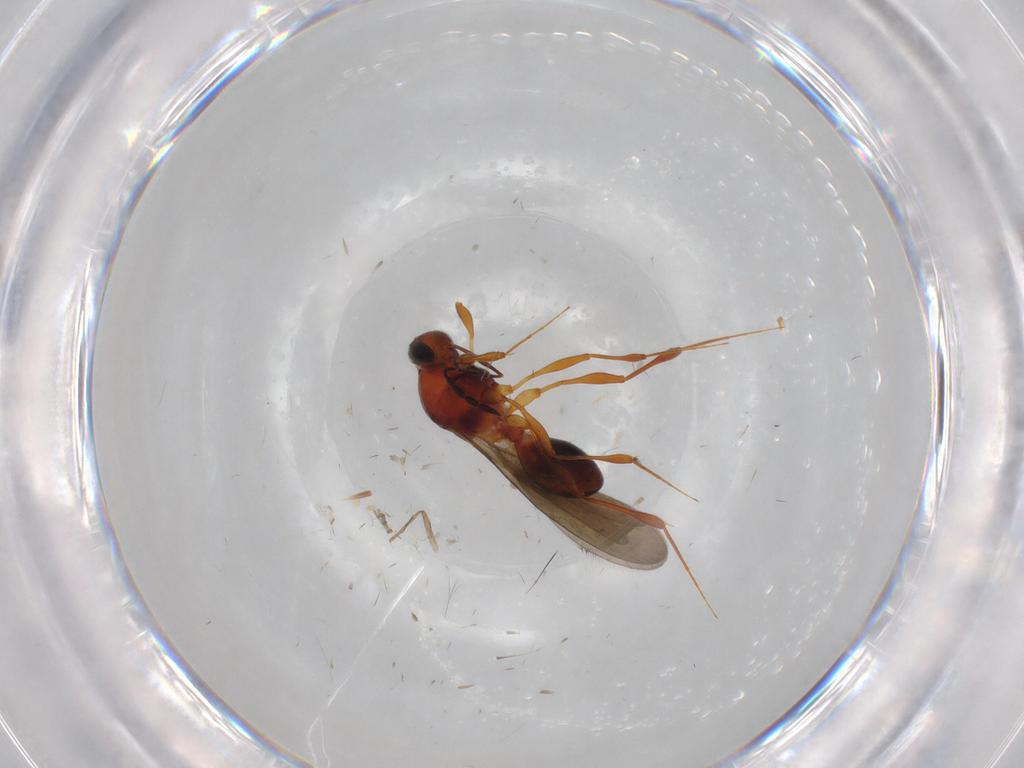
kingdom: Animalia
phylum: Arthropoda
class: Insecta
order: Hymenoptera
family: Platygastridae
